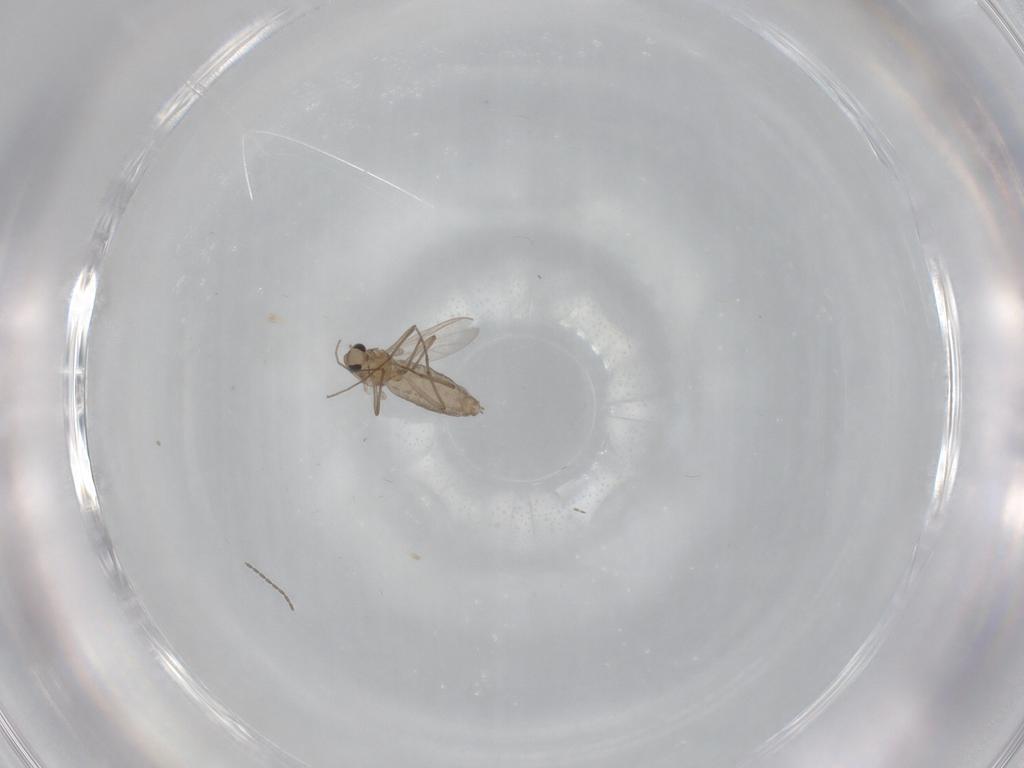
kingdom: Animalia
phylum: Arthropoda
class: Insecta
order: Diptera
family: Chironomidae
